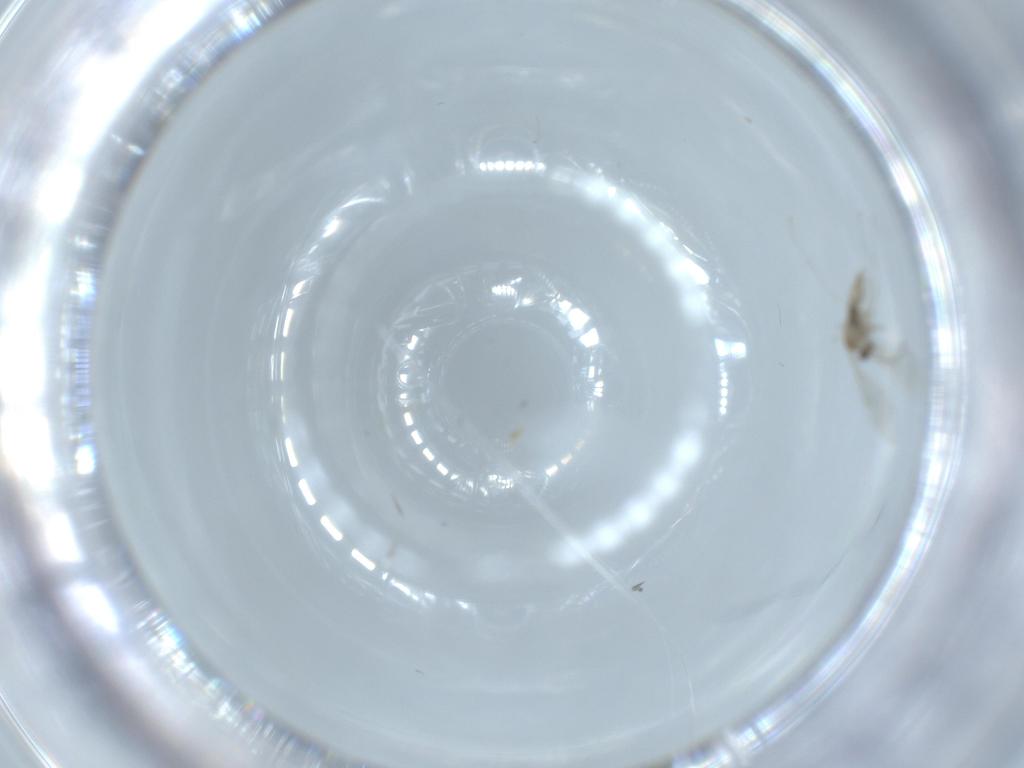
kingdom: Animalia
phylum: Arthropoda
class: Insecta
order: Diptera
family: Cecidomyiidae
